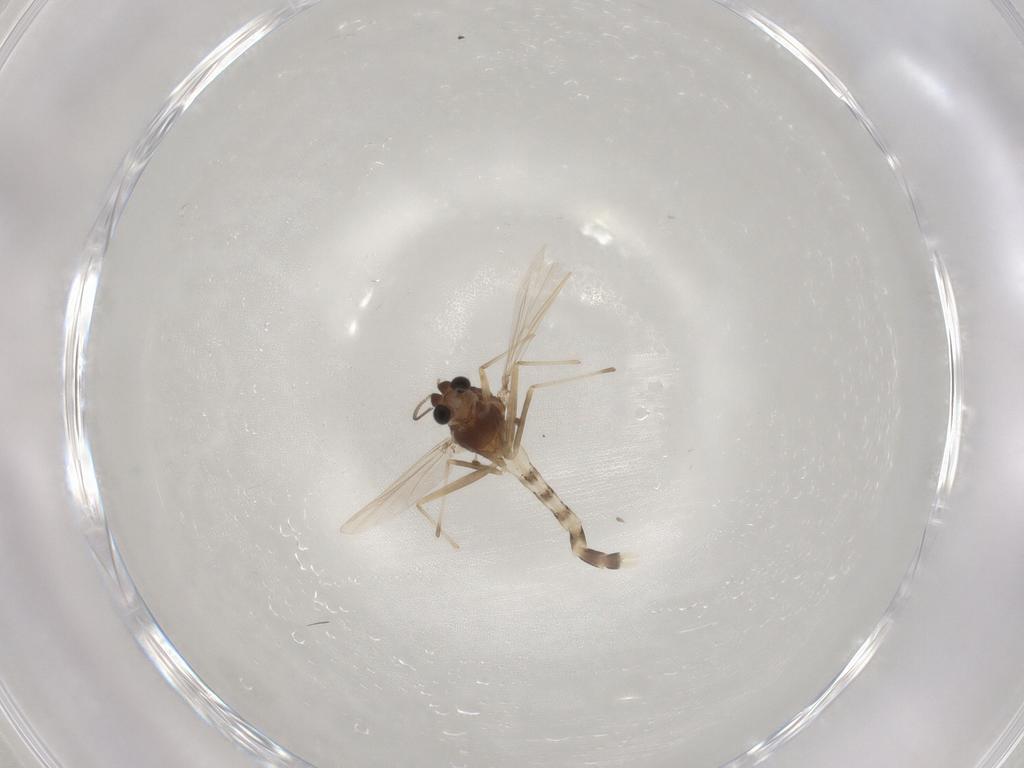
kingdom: Animalia
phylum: Arthropoda
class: Insecta
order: Diptera
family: Chironomidae
